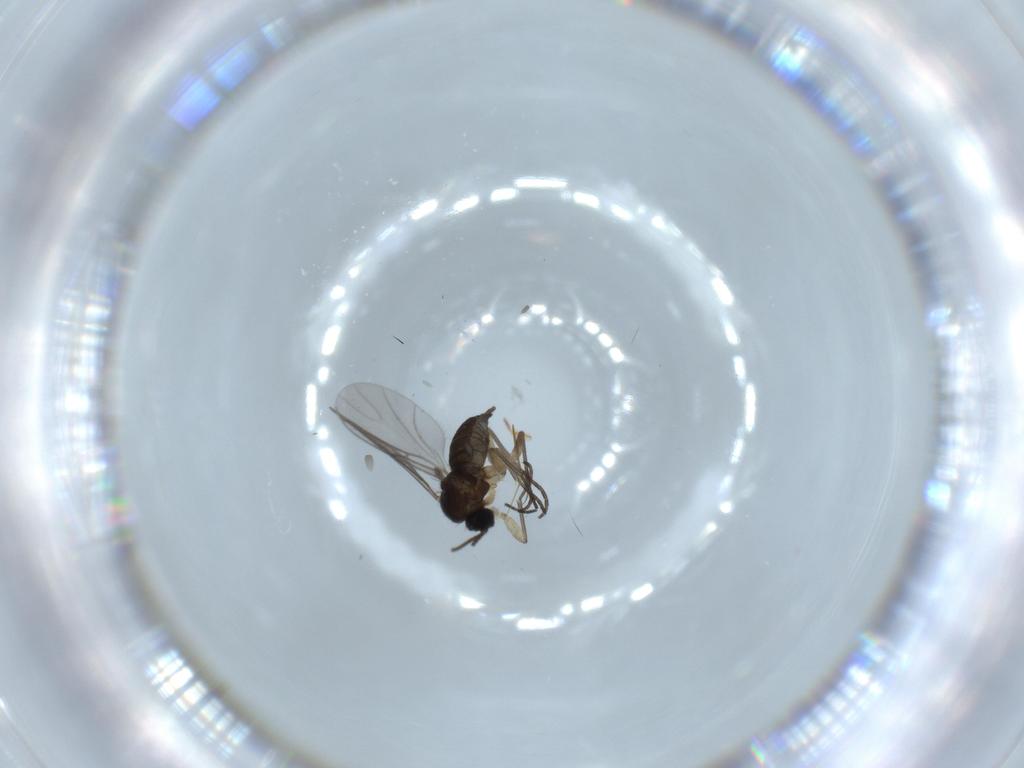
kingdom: Animalia
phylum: Arthropoda
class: Insecta
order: Diptera
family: Sciaridae
